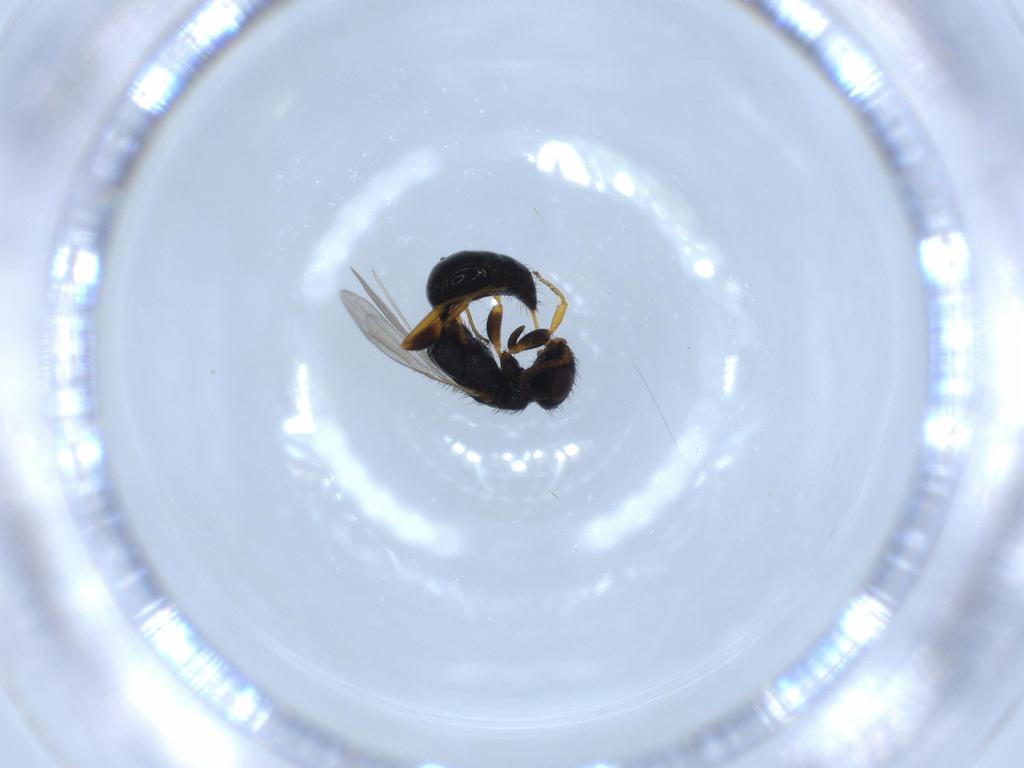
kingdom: Animalia
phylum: Arthropoda
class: Insecta
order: Hymenoptera
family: Bethylidae
